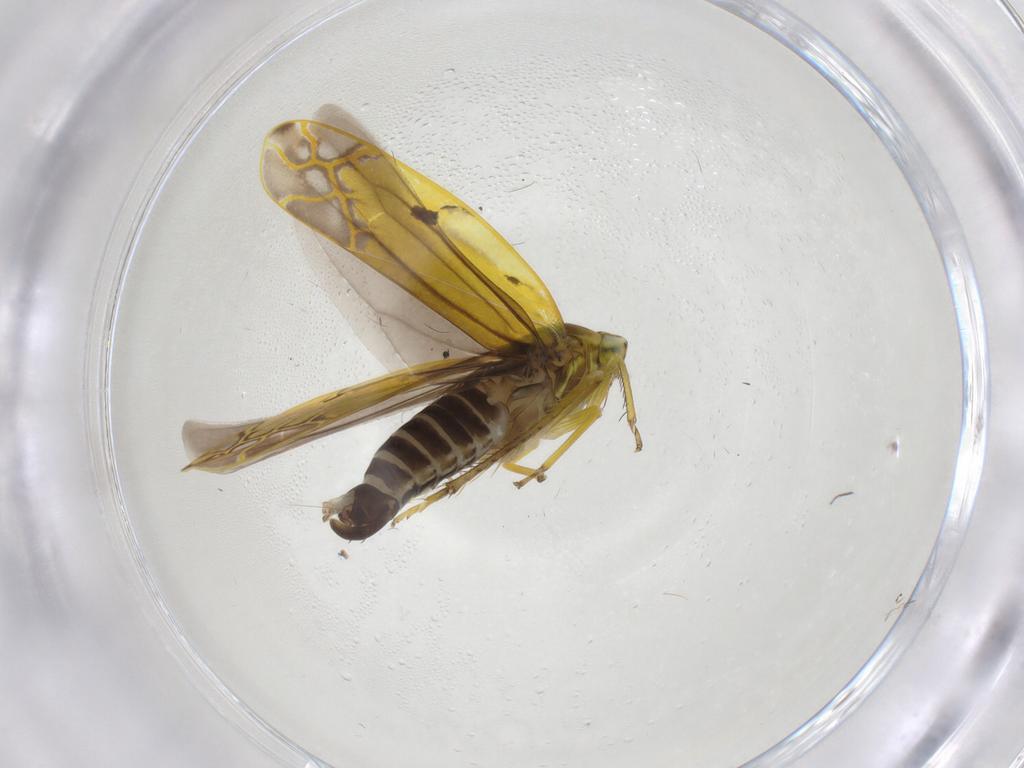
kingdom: Animalia
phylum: Arthropoda
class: Insecta
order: Hemiptera
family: Cicadellidae
